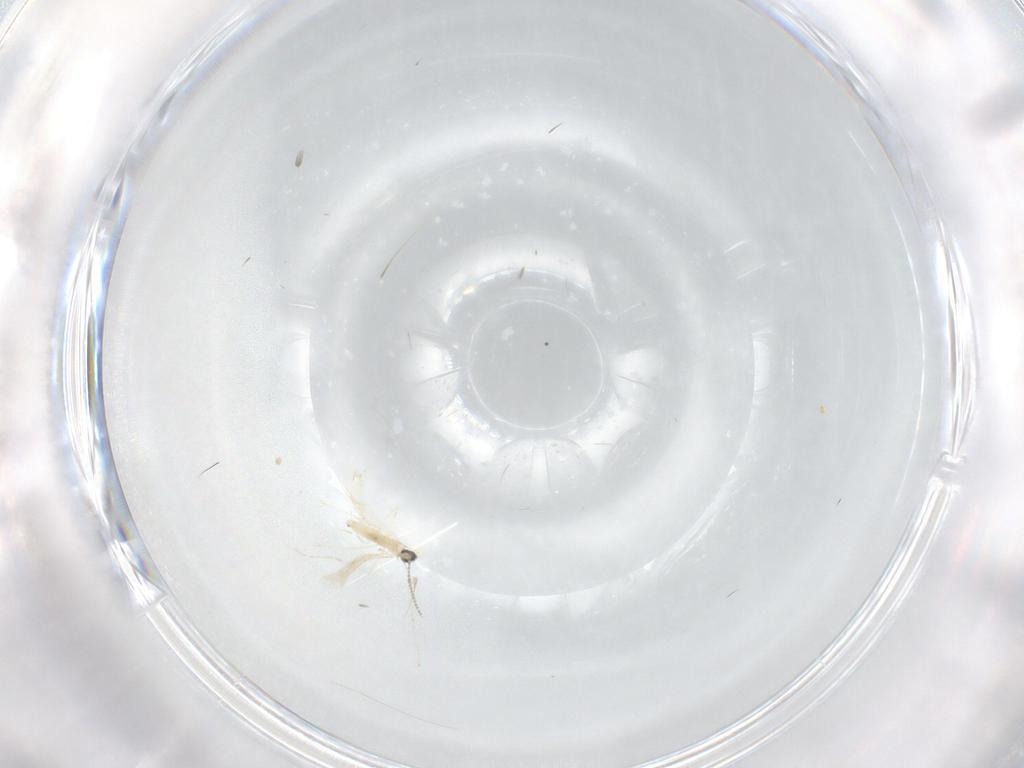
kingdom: Animalia
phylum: Arthropoda
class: Insecta
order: Diptera
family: Cecidomyiidae
